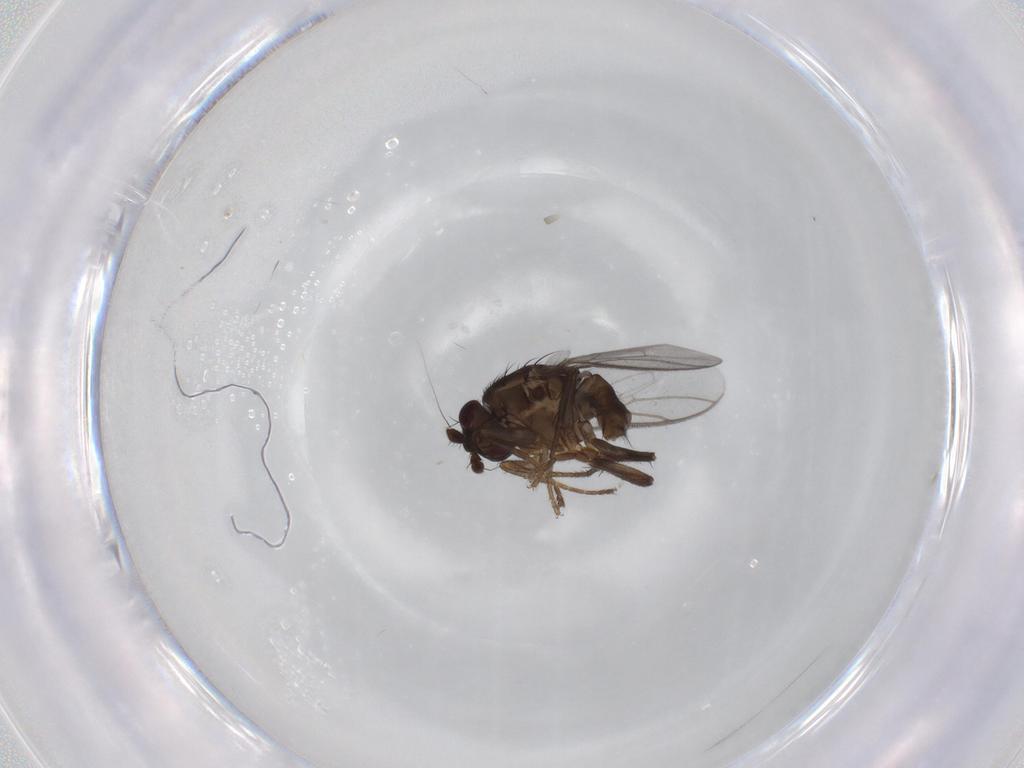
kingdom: Animalia
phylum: Arthropoda
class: Insecta
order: Diptera
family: Sphaeroceridae
